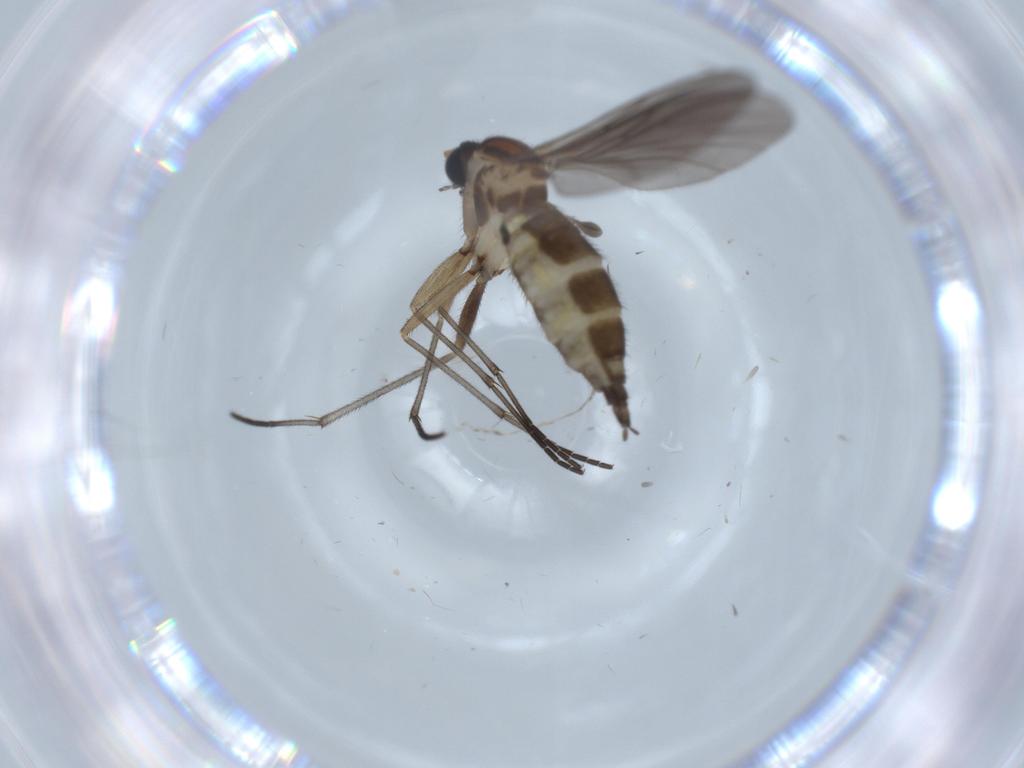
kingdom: Animalia
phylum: Arthropoda
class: Insecta
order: Diptera
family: Sciaridae
